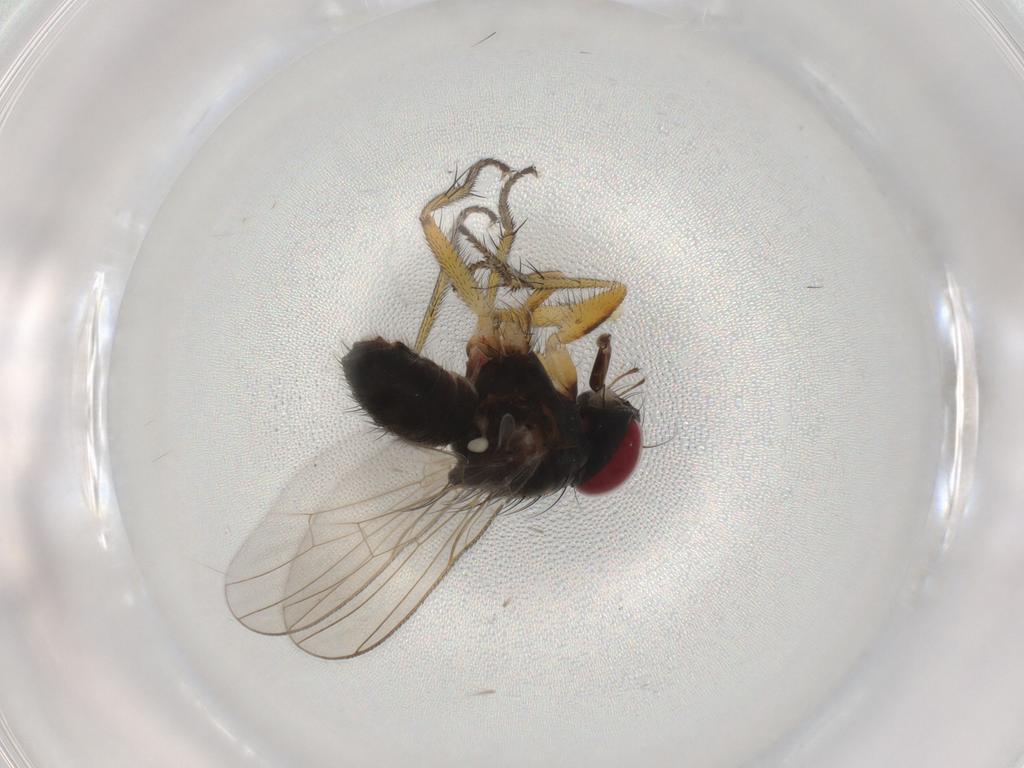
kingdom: Animalia
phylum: Arthropoda
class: Insecta
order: Diptera
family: Muscidae
